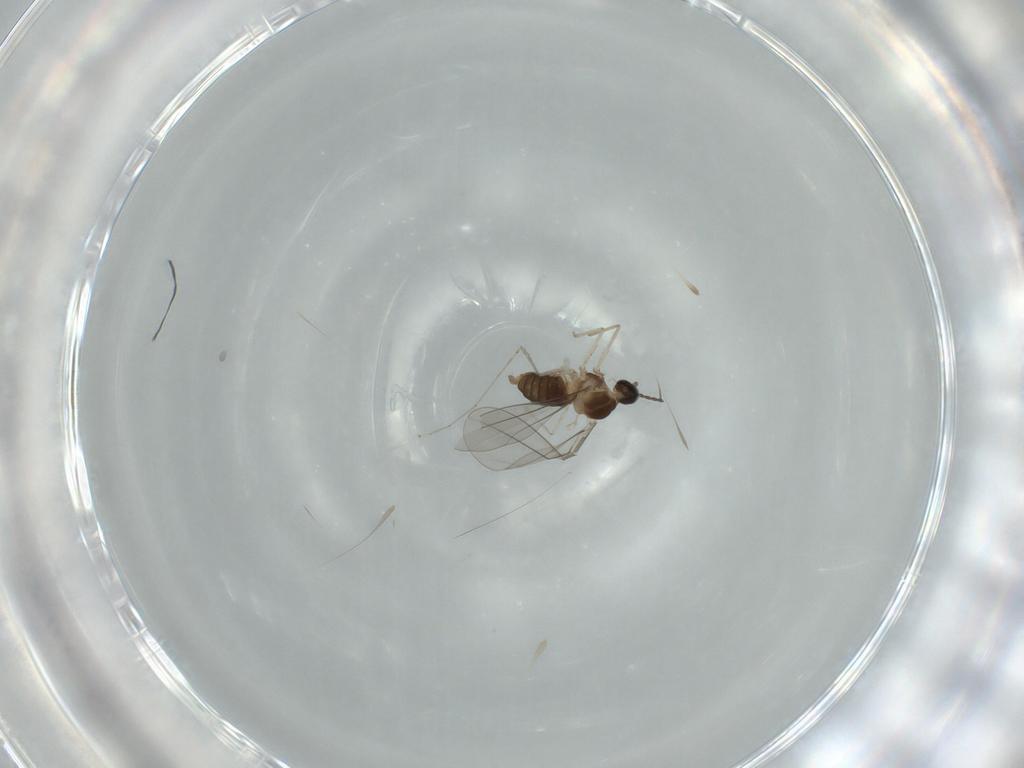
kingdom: Animalia
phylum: Arthropoda
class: Insecta
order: Diptera
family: Cecidomyiidae
